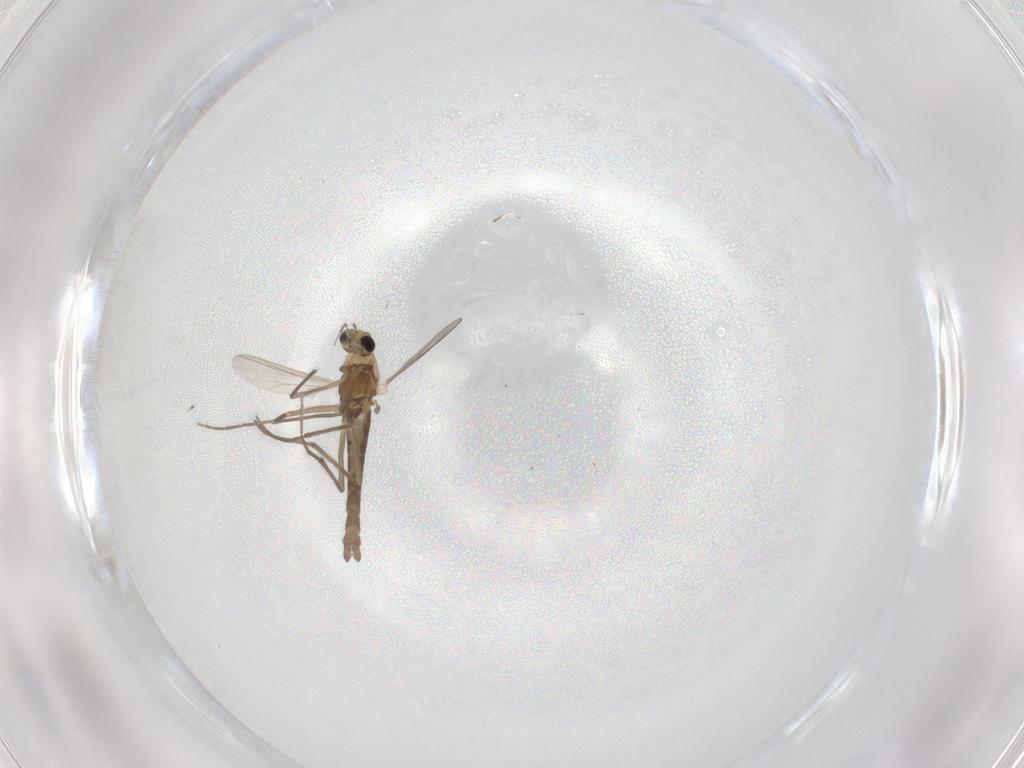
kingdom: Animalia
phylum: Arthropoda
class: Insecta
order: Diptera
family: Chironomidae
